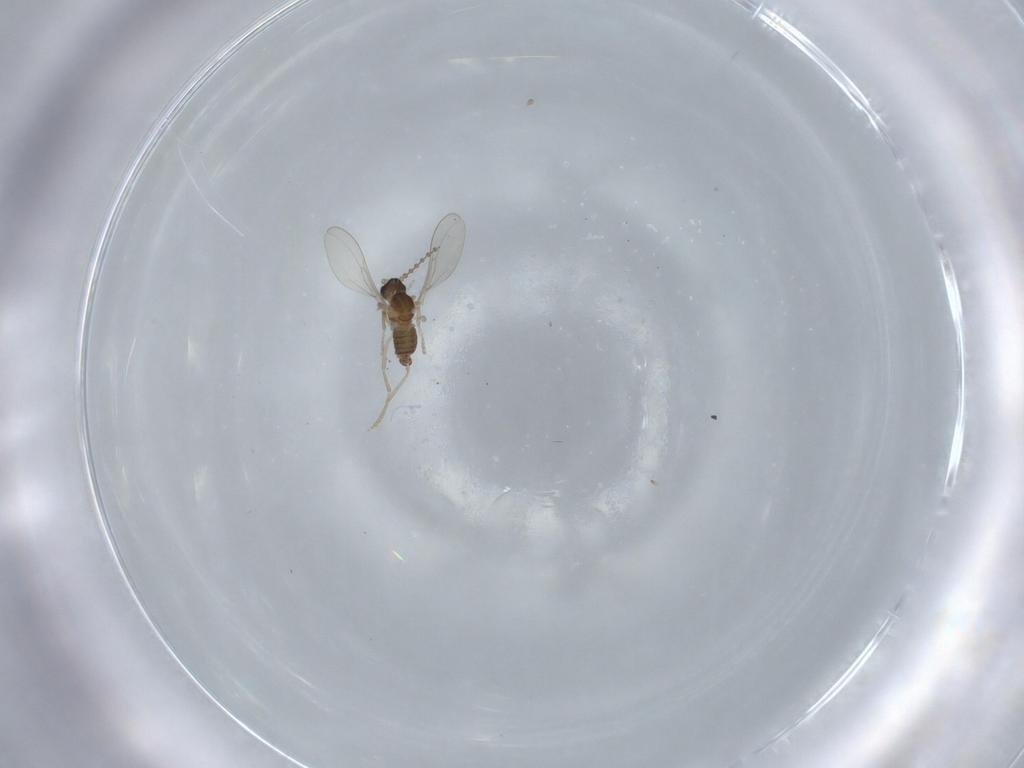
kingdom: Animalia
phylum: Arthropoda
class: Insecta
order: Diptera
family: Cecidomyiidae
